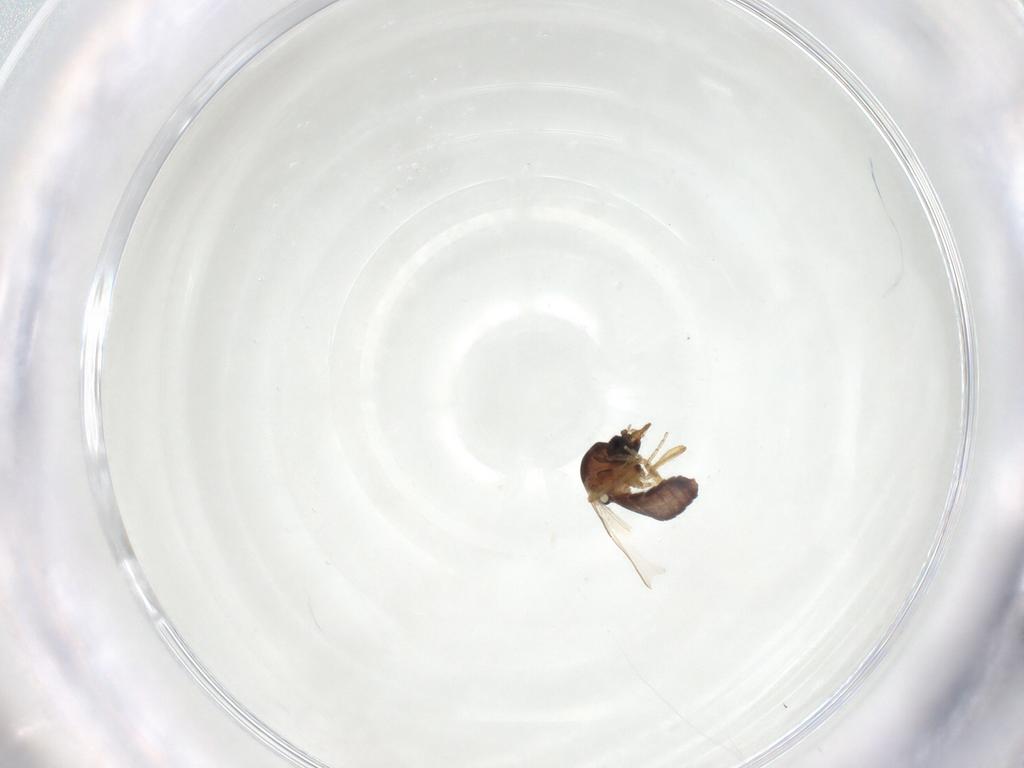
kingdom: Animalia
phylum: Arthropoda
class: Insecta
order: Diptera
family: Ceratopogonidae
